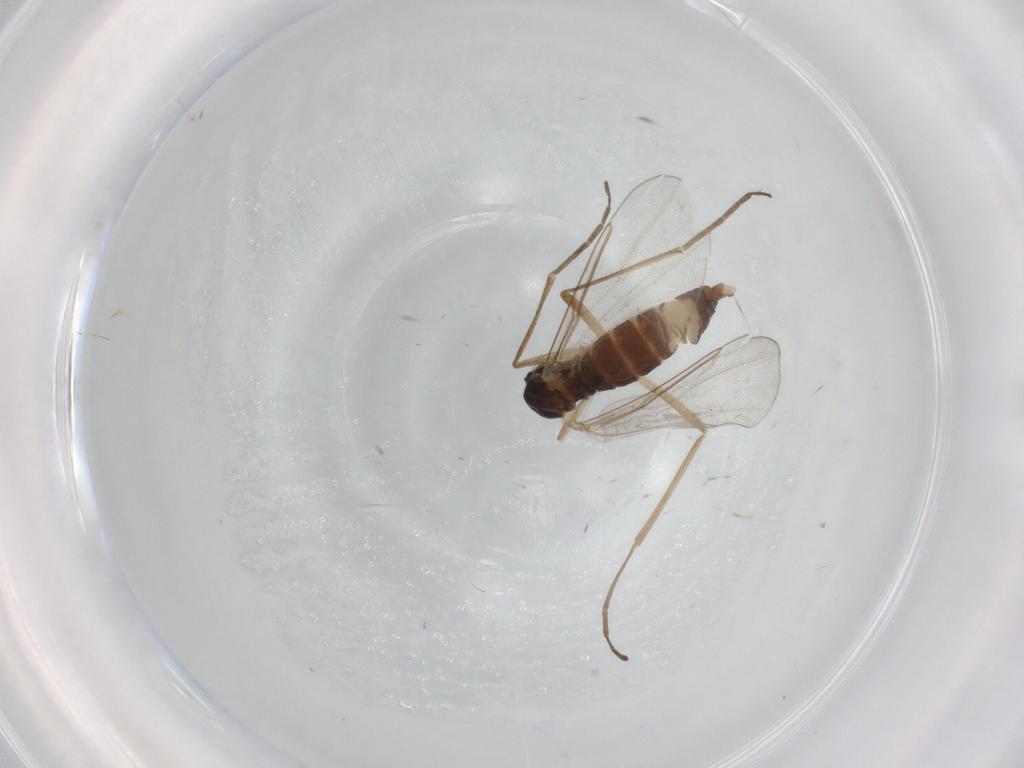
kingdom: Animalia
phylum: Arthropoda
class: Insecta
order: Diptera
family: Cecidomyiidae
